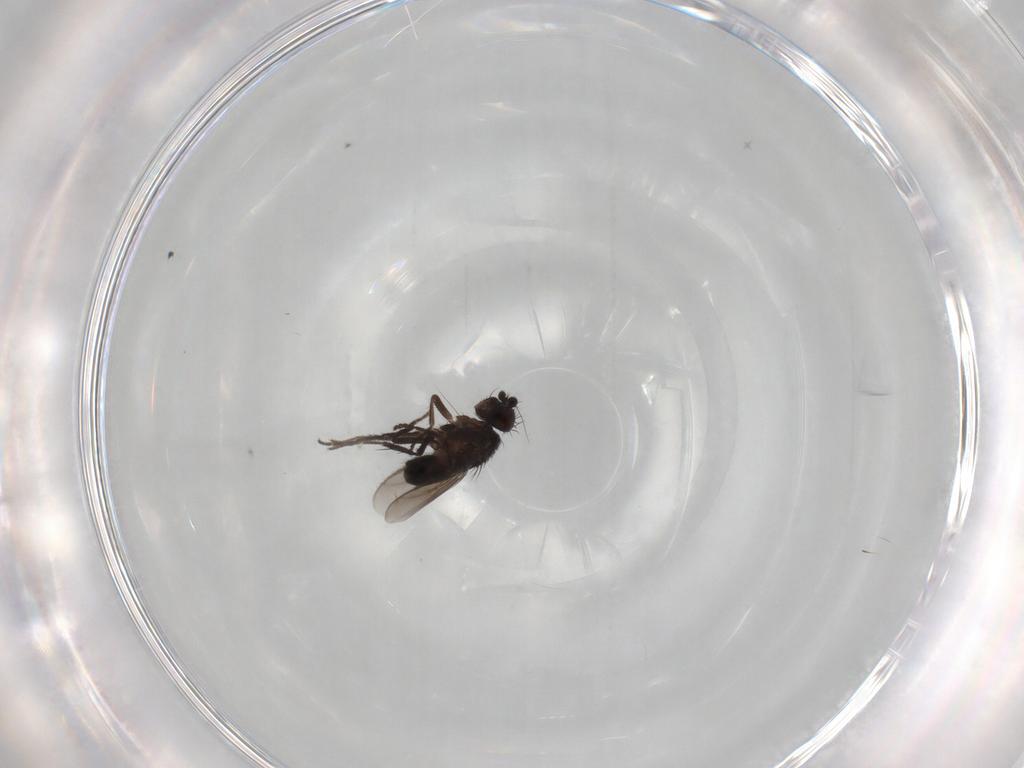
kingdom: Animalia
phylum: Arthropoda
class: Insecta
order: Diptera
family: Sphaeroceridae
